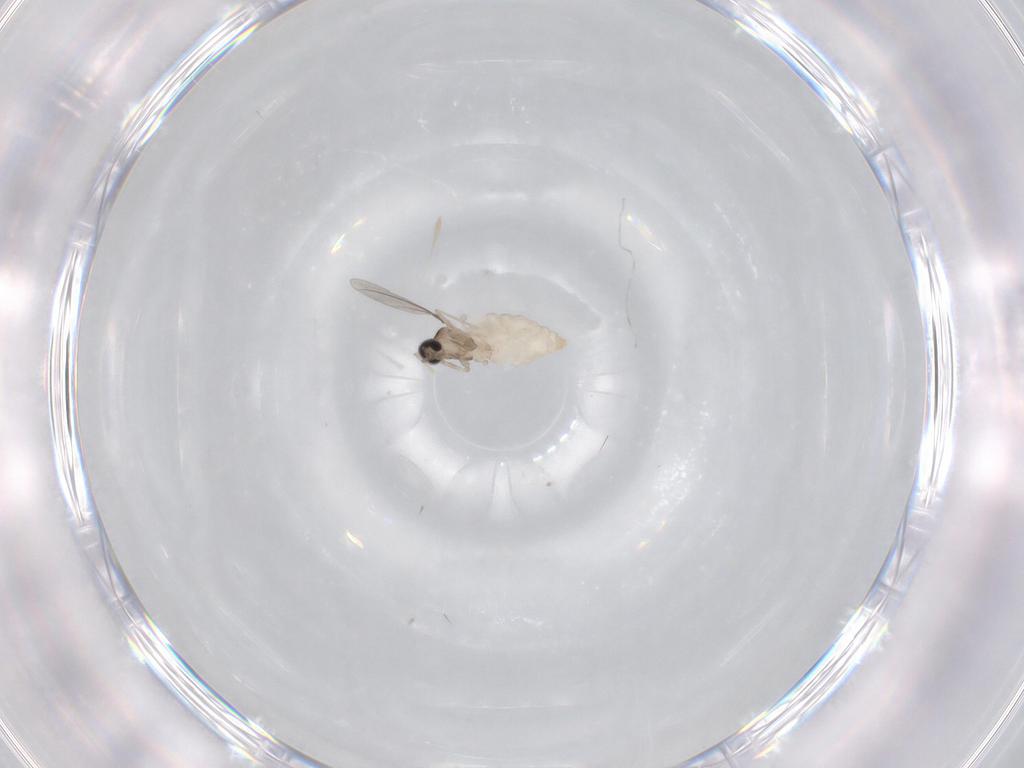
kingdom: Animalia
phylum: Arthropoda
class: Insecta
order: Diptera
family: Cecidomyiidae
